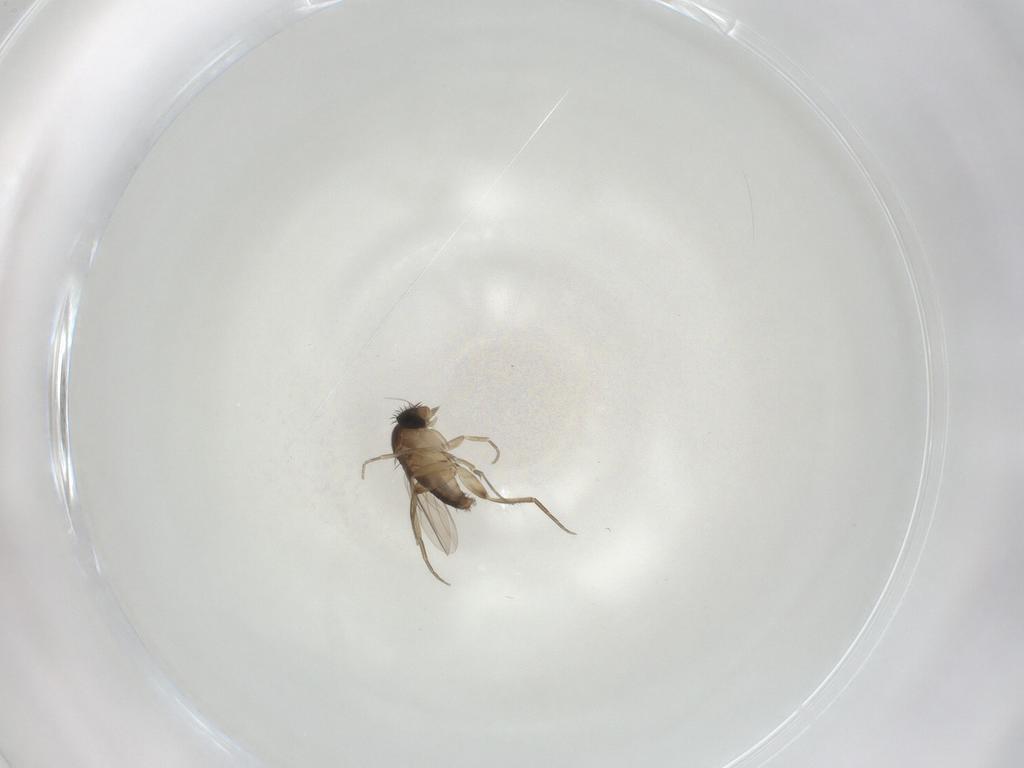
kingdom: Animalia
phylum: Arthropoda
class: Insecta
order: Diptera
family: Phoridae
